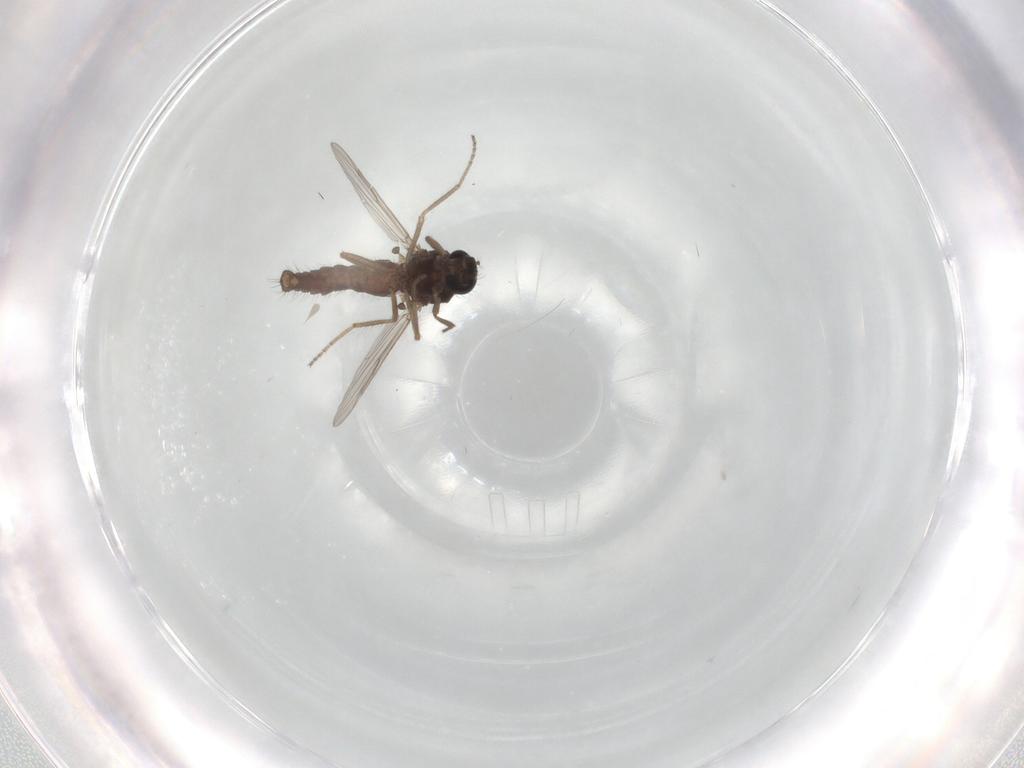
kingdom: Animalia
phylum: Arthropoda
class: Insecta
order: Diptera
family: Ceratopogonidae
